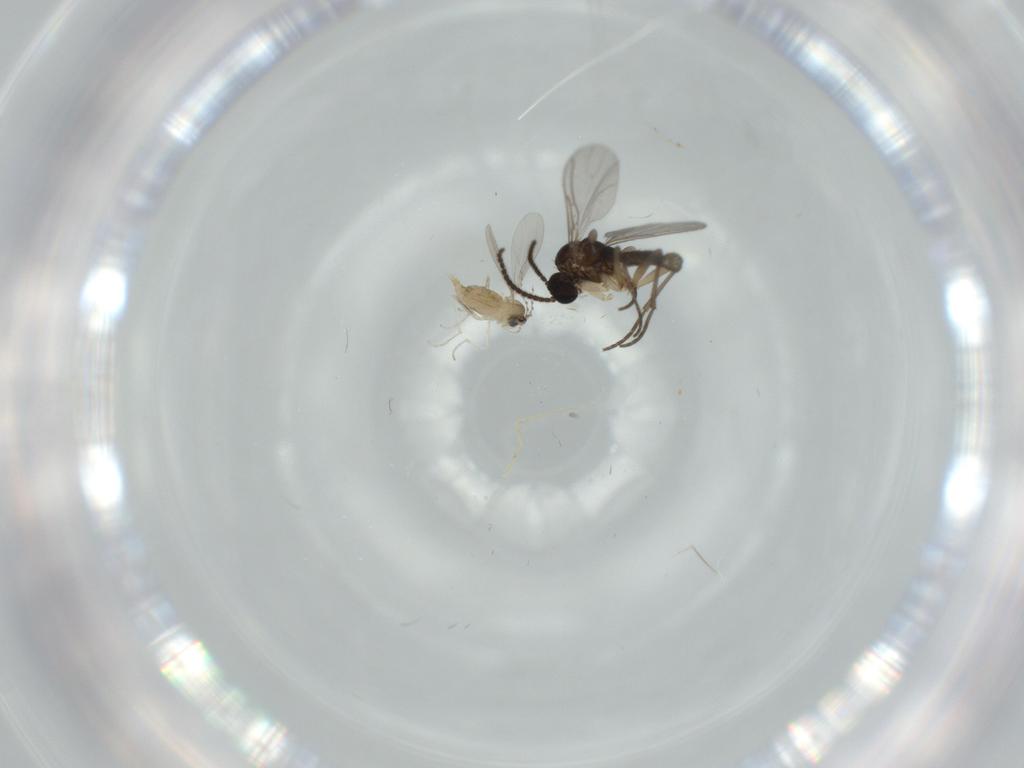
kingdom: Animalia
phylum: Arthropoda
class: Insecta
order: Diptera
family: Sciaridae
